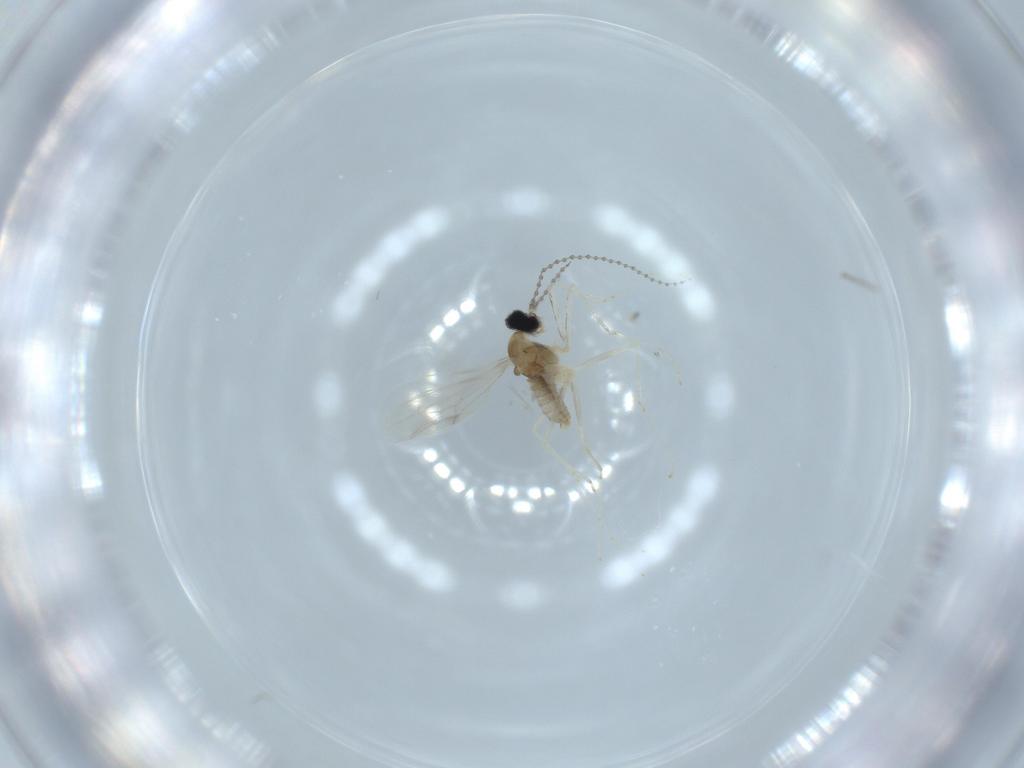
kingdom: Animalia
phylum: Arthropoda
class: Insecta
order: Diptera
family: Cecidomyiidae
